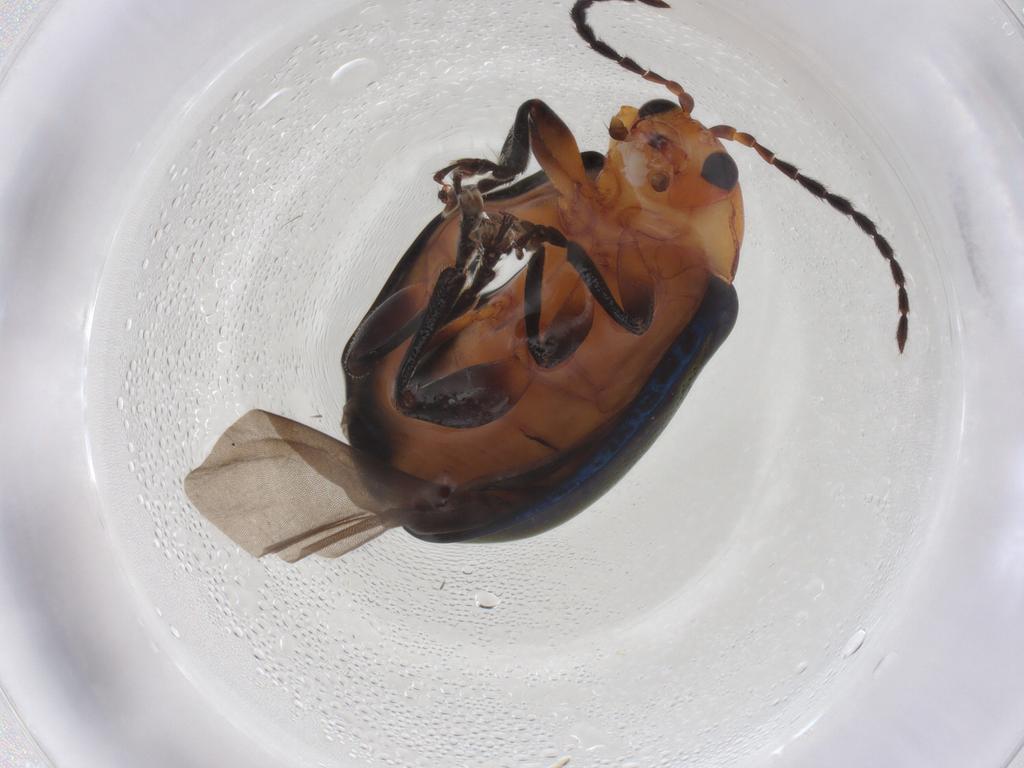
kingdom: Animalia
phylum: Arthropoda
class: Insecta
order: Coleoptera
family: Chrysomelidae
